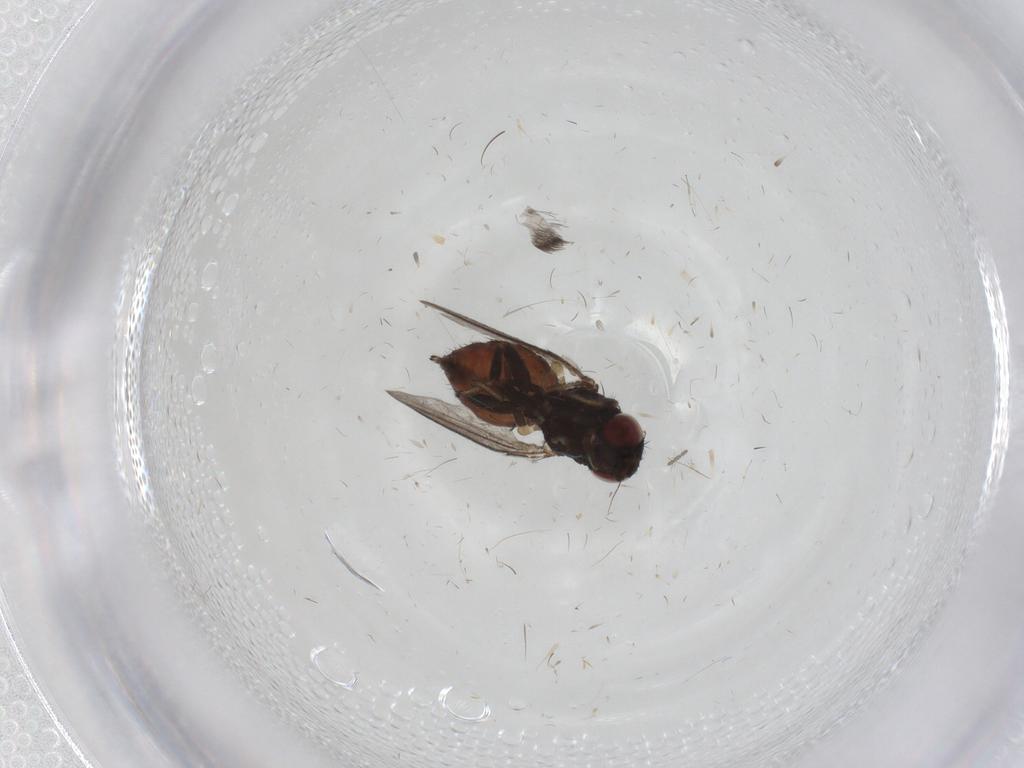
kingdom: Animalia
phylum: Arthropoda
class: Insecta
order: Diptera
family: Milichiidae
